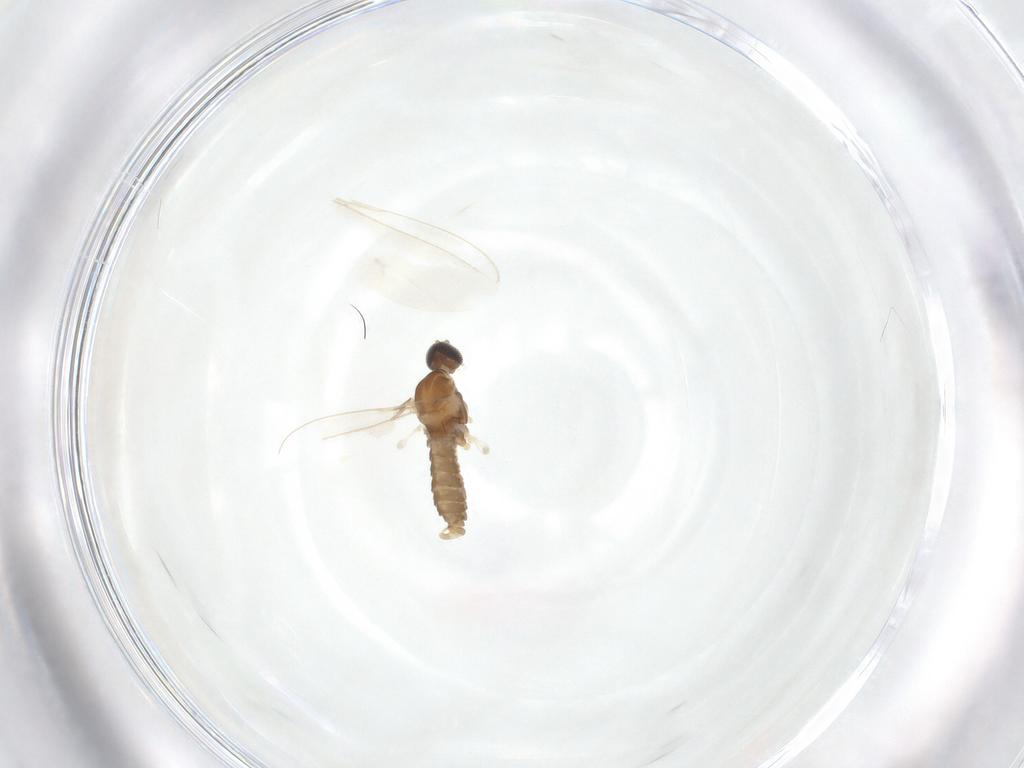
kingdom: Animalia
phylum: Arthropoda
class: Insecta
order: Diptera
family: Cecidomyiidae
